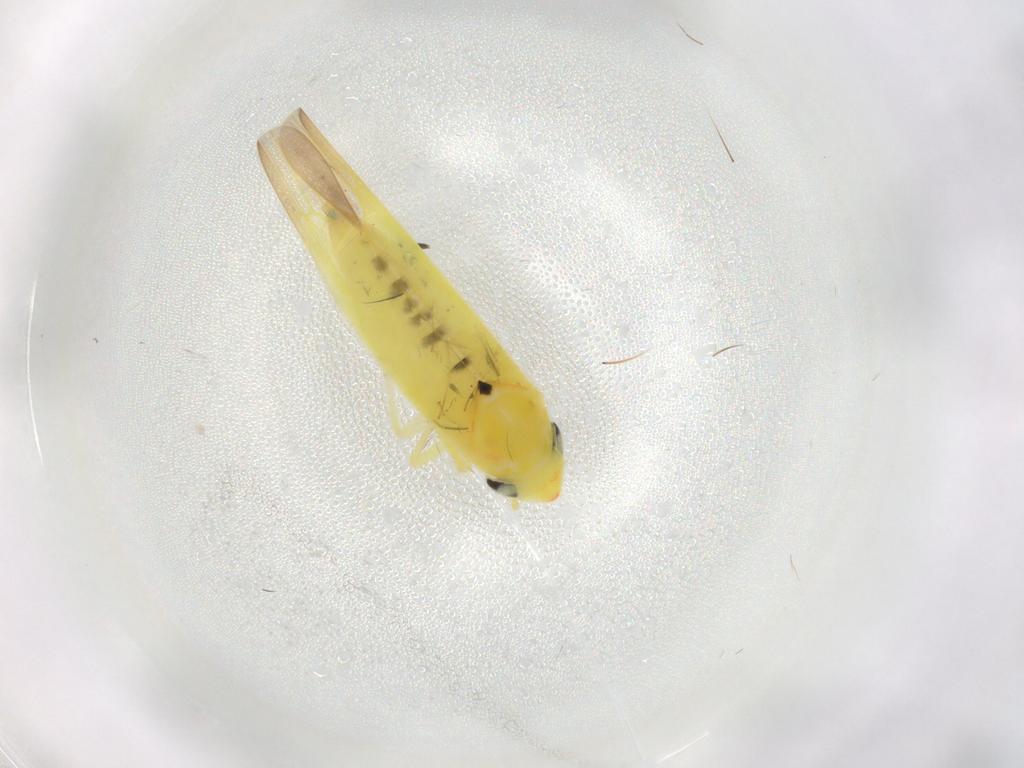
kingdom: Animalia
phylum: Arthropoda
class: Insecta
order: Hemiptera
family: Cicadellidae
